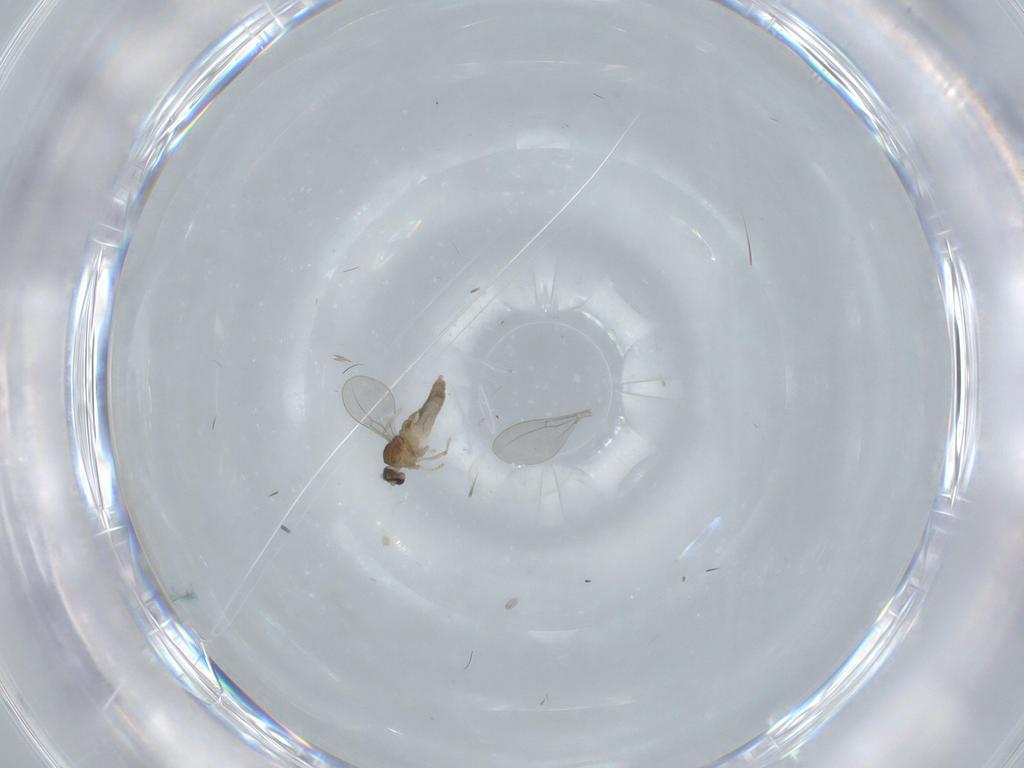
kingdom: Animalia
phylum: Arthropoda
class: Insecta
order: Diptera
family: Cecidomyiidae
